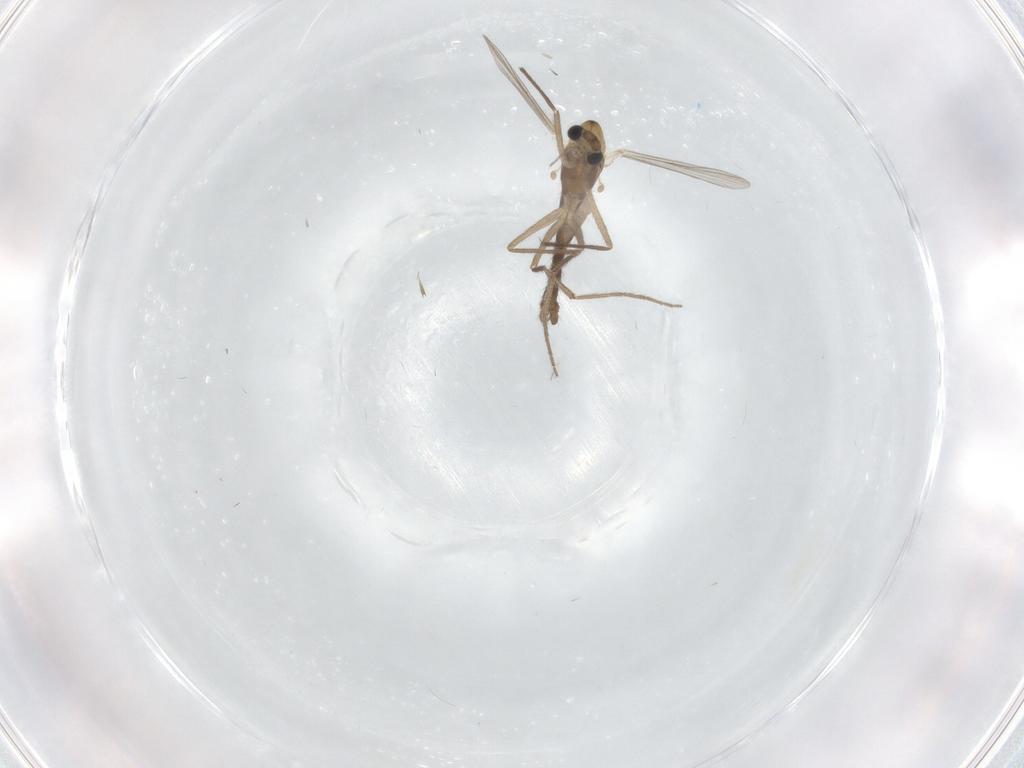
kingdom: Animalia
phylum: Arthropoda
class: Insecta
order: Diptera
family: Chironomidae
